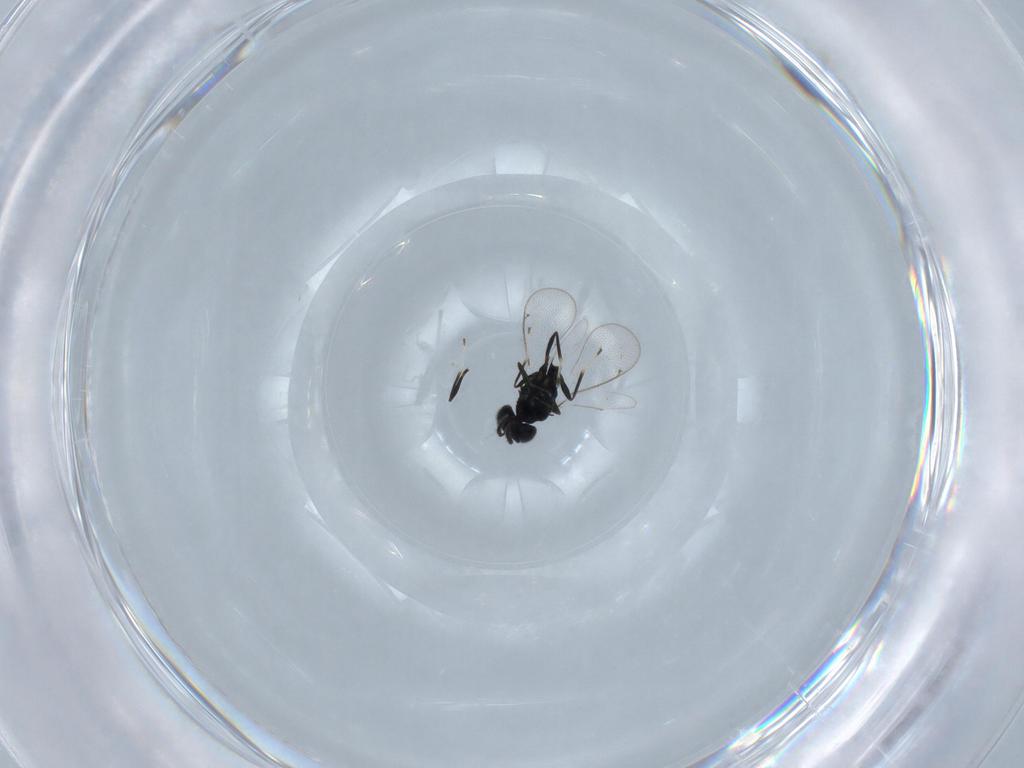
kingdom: Animalia
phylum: Arthropoda
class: Insecta
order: Hymenoptera
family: Eulophidae
